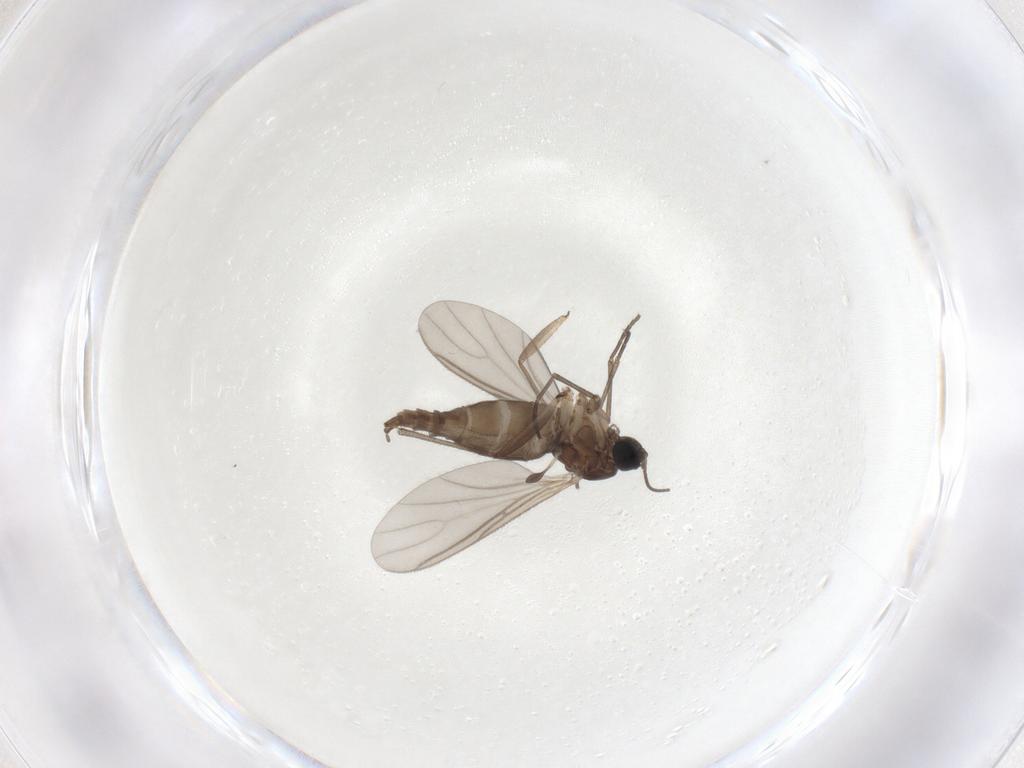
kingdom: Animalia
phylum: Arthropoda
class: Insecta
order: Diptera
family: Sciaridae
